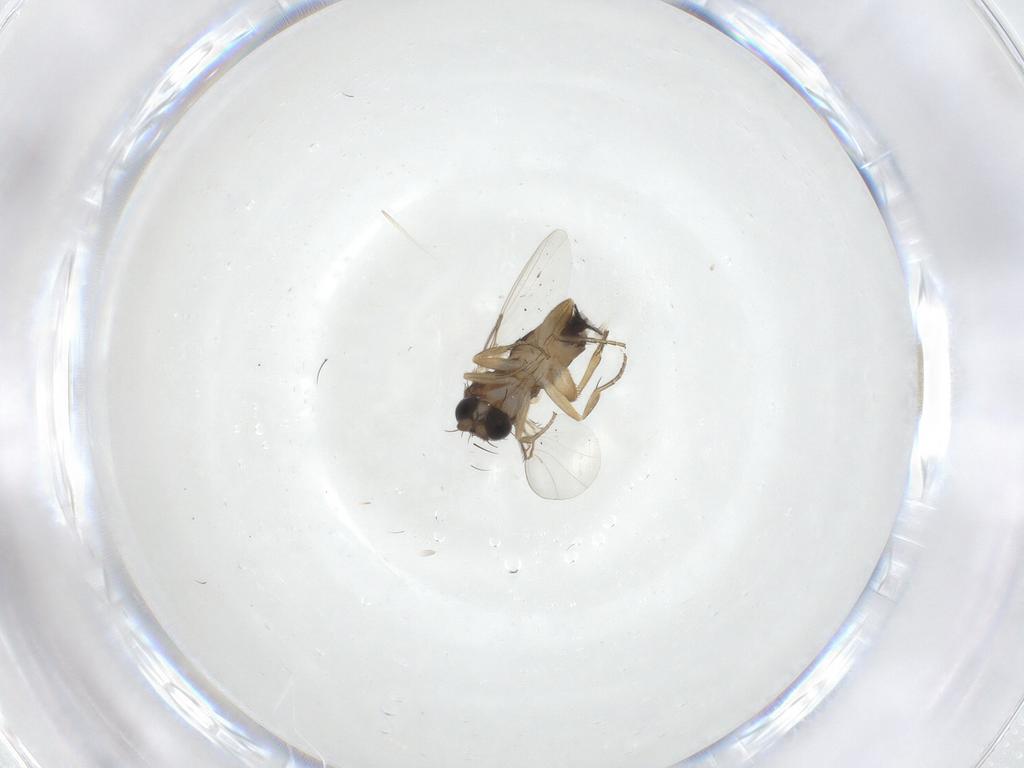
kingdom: Animalia
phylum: Arthropoda
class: Insecta
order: Diptera
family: Phoridae
